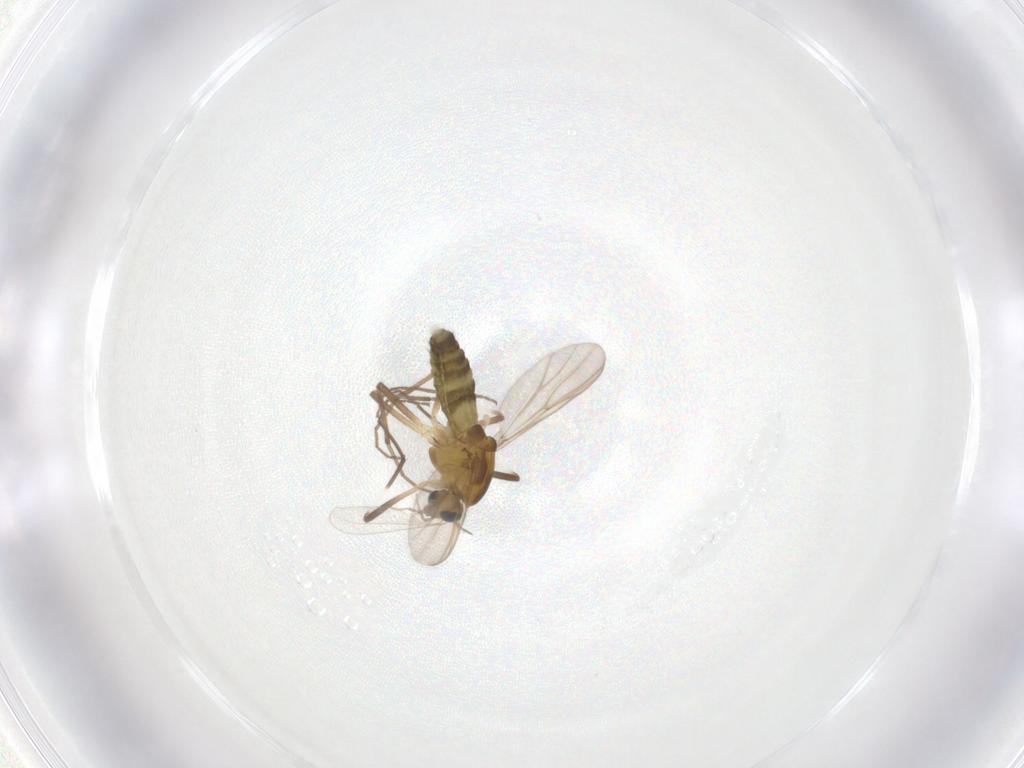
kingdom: Animalia
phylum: Arthropoda
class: Insecta
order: Diptera
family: Chironomidae
